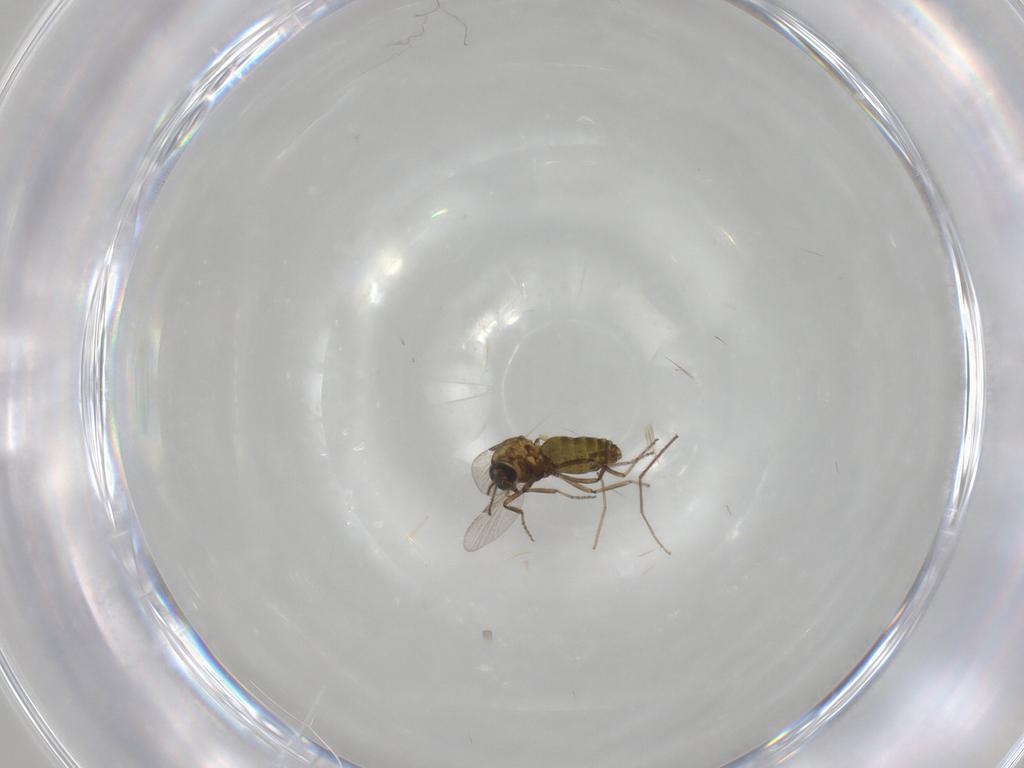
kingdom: Animalia
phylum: Arthropoda
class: Insecta
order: Diptera
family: Ceratopogonidae
